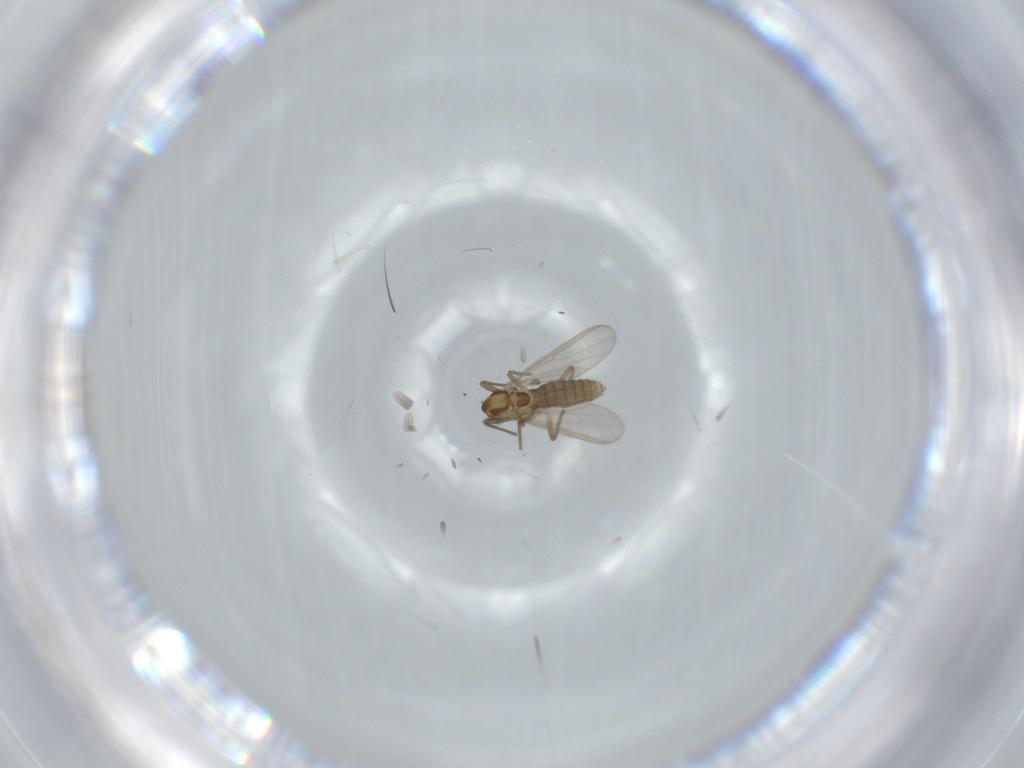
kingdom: Animalia
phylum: Arthropoda
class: Insecta
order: Diptera
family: Chironomidae
